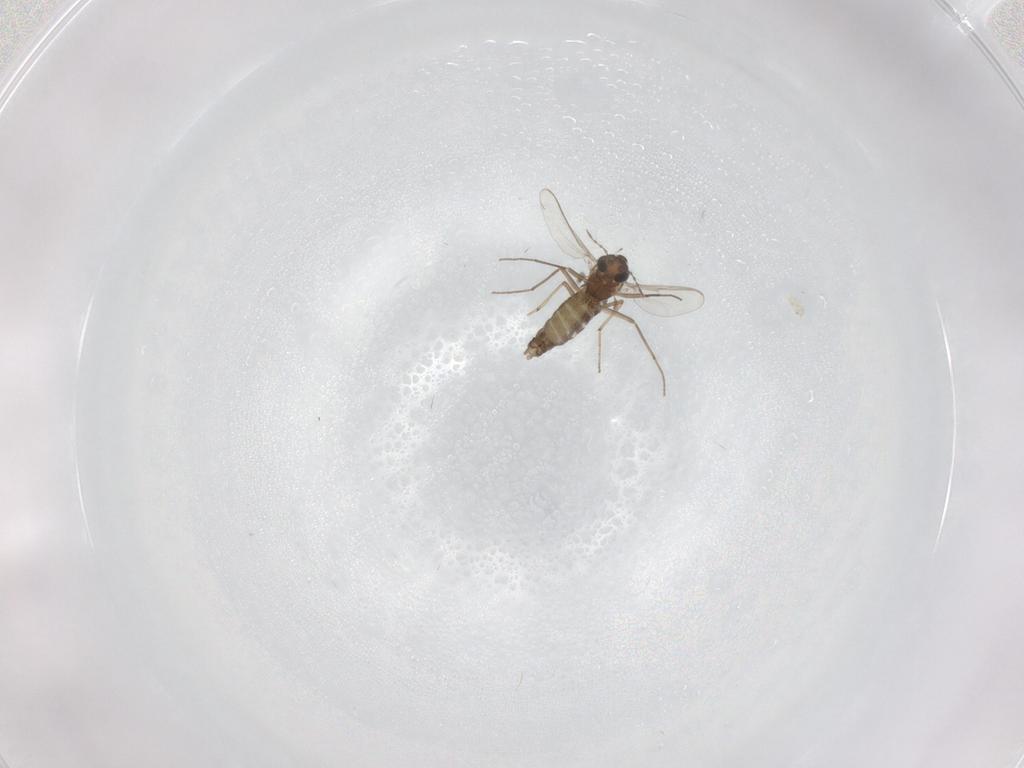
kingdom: Animalia
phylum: Arthropoda
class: Insecta
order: Diptera
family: Chironomidae
